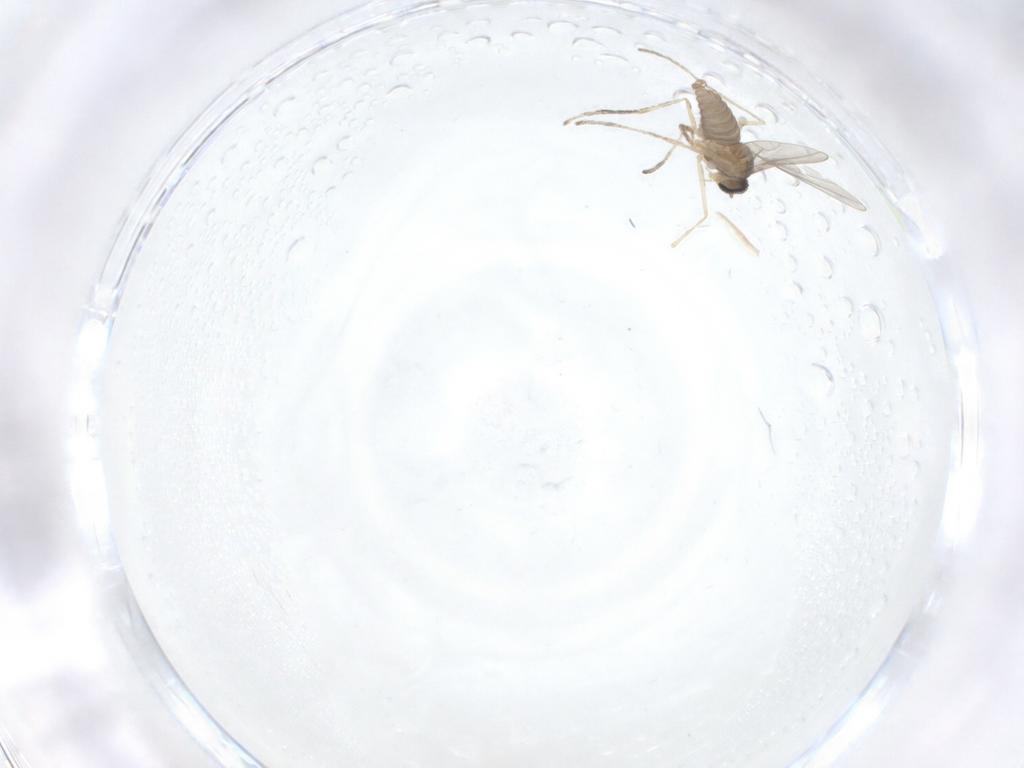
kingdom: Animalia
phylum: Arthropoda
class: Insecta
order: Diptera
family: Cecidomyiidae
